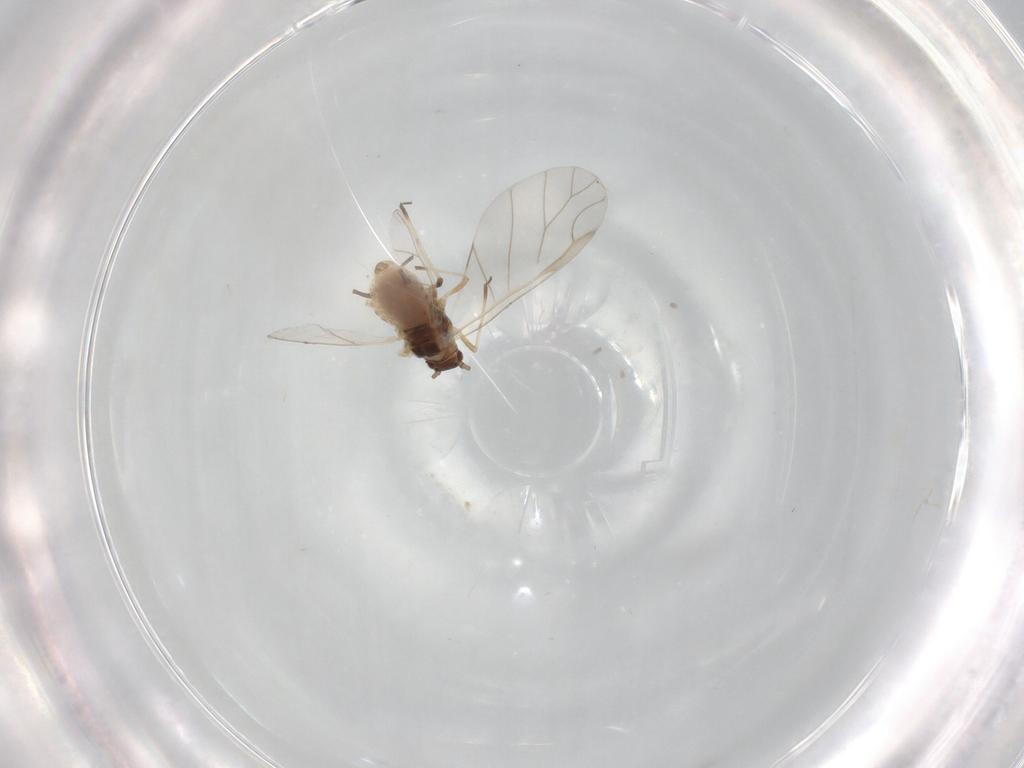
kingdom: Animalia
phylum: Arthropoda
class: Insecta
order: Hemiptera
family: Aphididae
